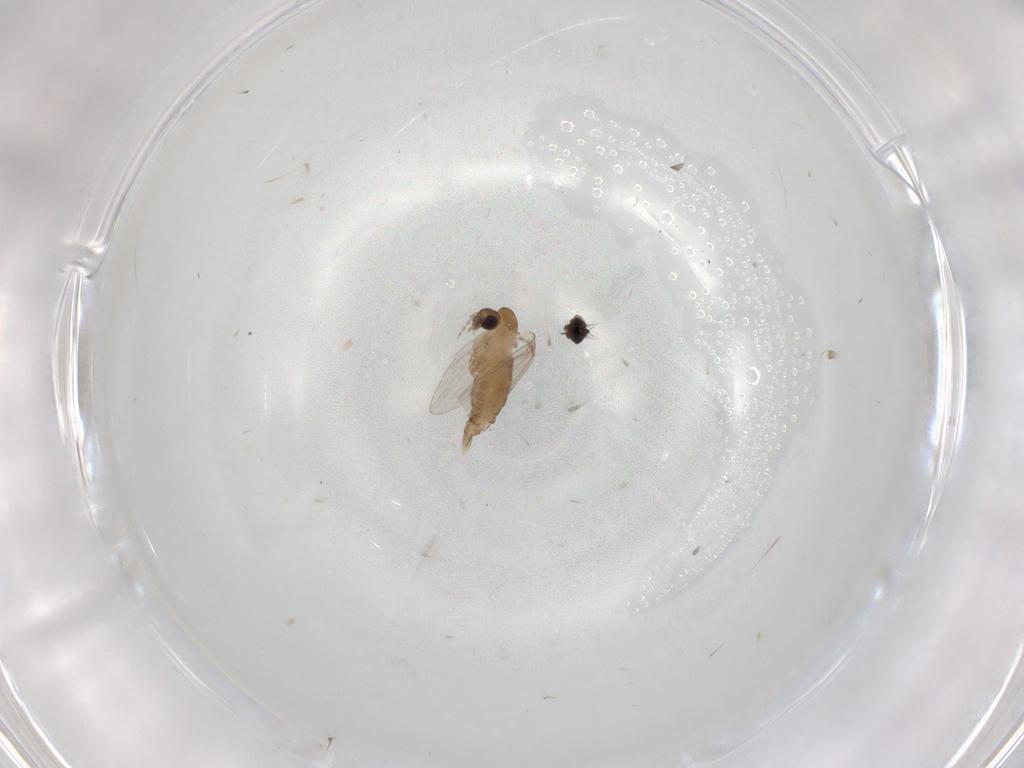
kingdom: Animalia
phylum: Arthropoda
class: Insecta
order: Diptera
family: Phoridae
